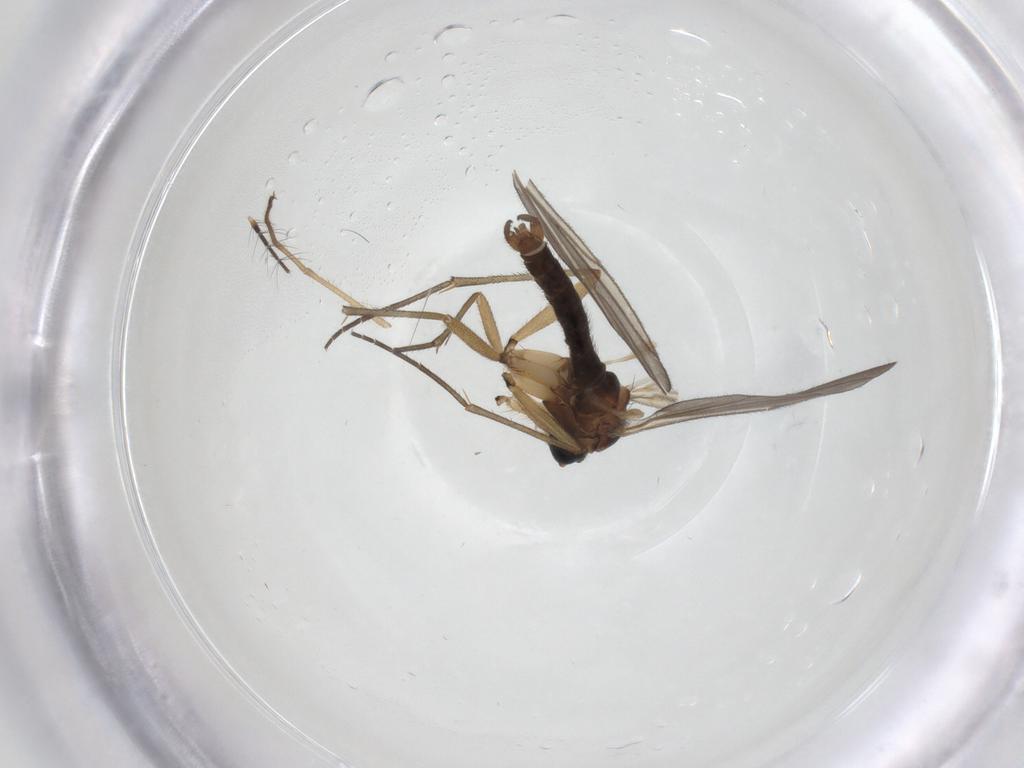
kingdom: Animalia
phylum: Arthropoda
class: Insecta
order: Diptera
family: Sciaridae
